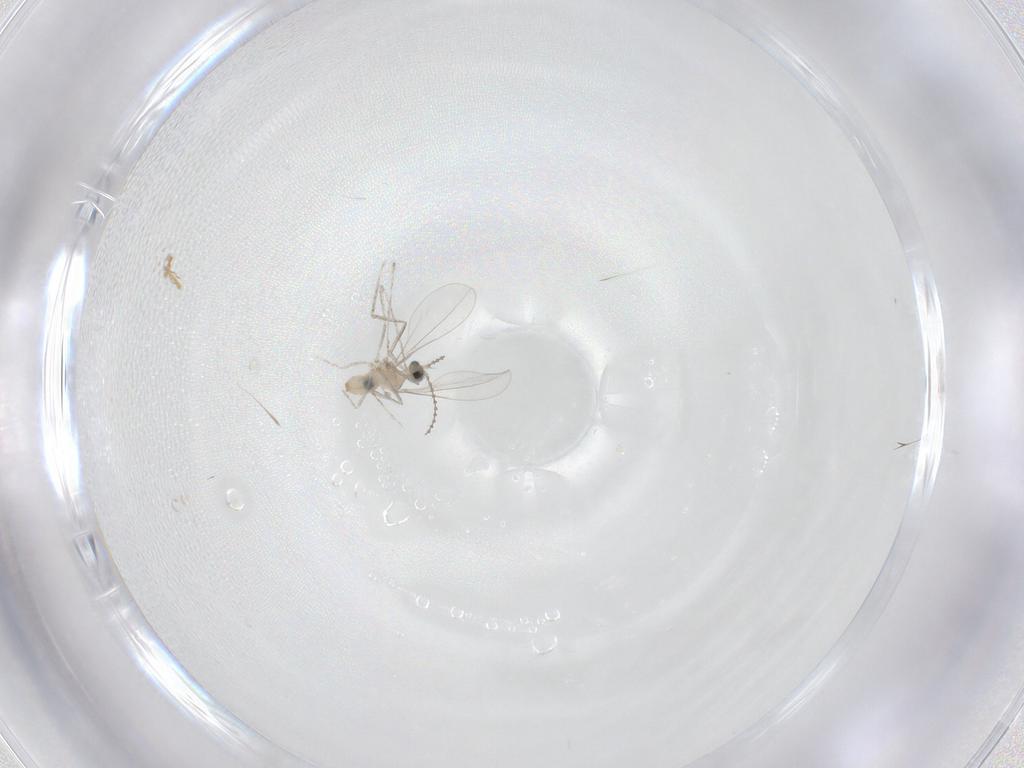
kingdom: Animalia
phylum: Arthropoda
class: Insecta
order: Diptera
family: Cecidomyiidae
